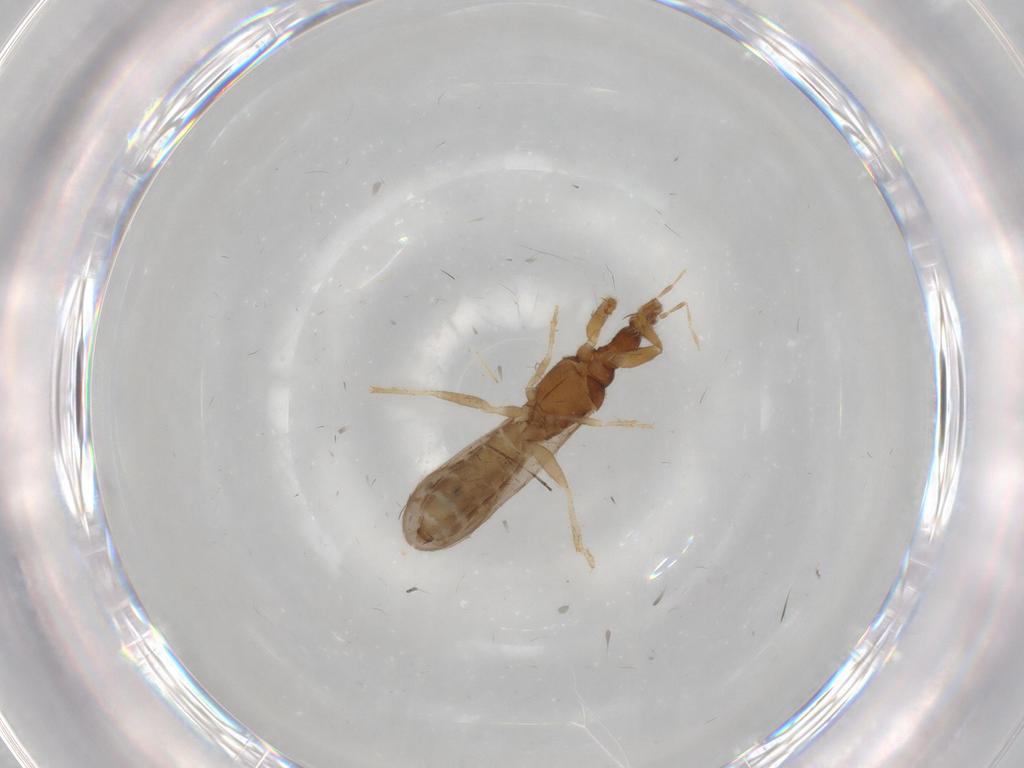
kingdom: Animalia
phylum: Arthropoda
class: Insecta
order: Hemiptera
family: Enicocephalidae
